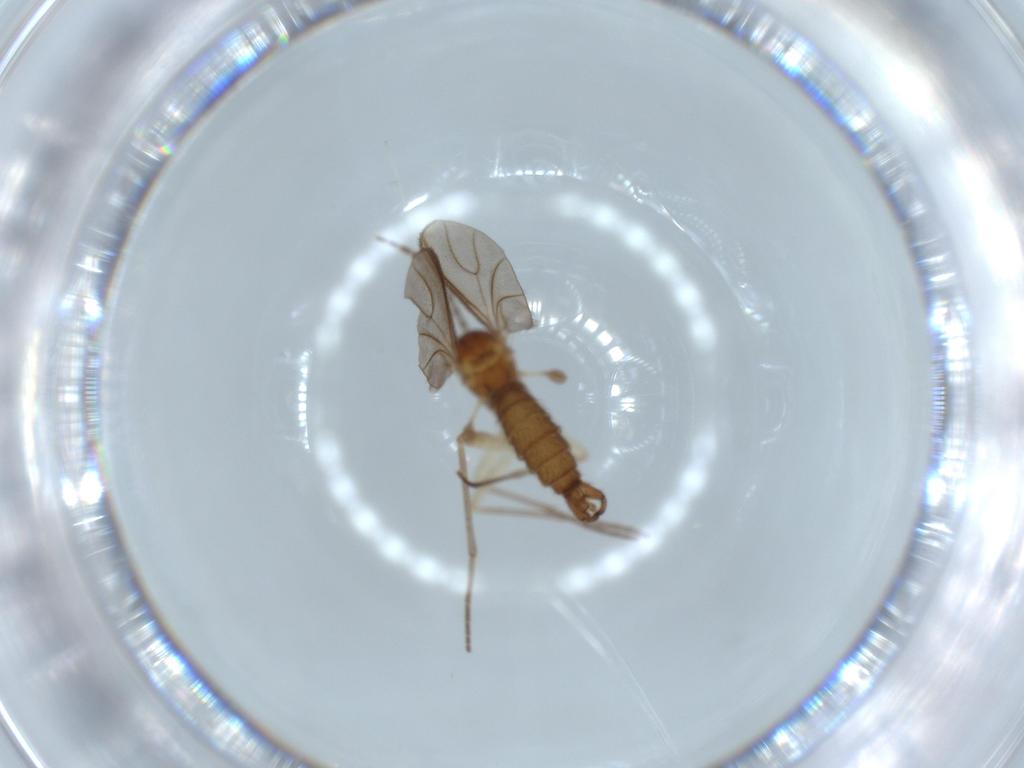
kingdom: Animalia
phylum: Arthropoda
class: Insecta
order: Diptera
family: Sciaridae
